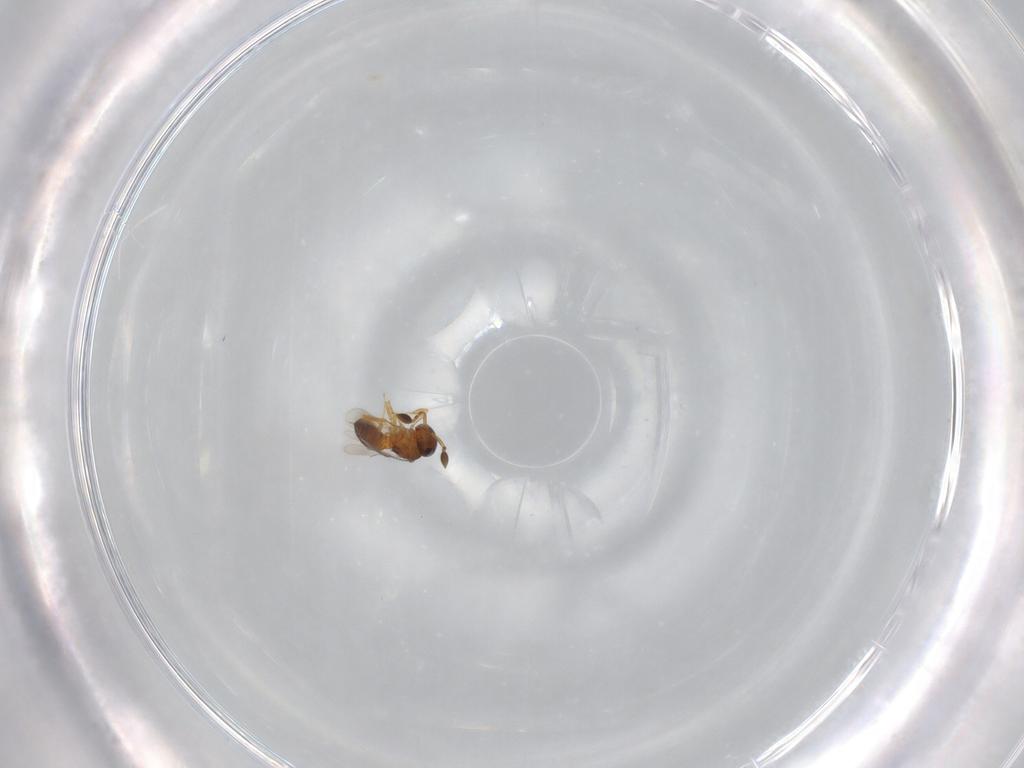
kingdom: Animalia
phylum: Arthropoda
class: Insecta
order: Hymenoptera
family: Scelionidae
